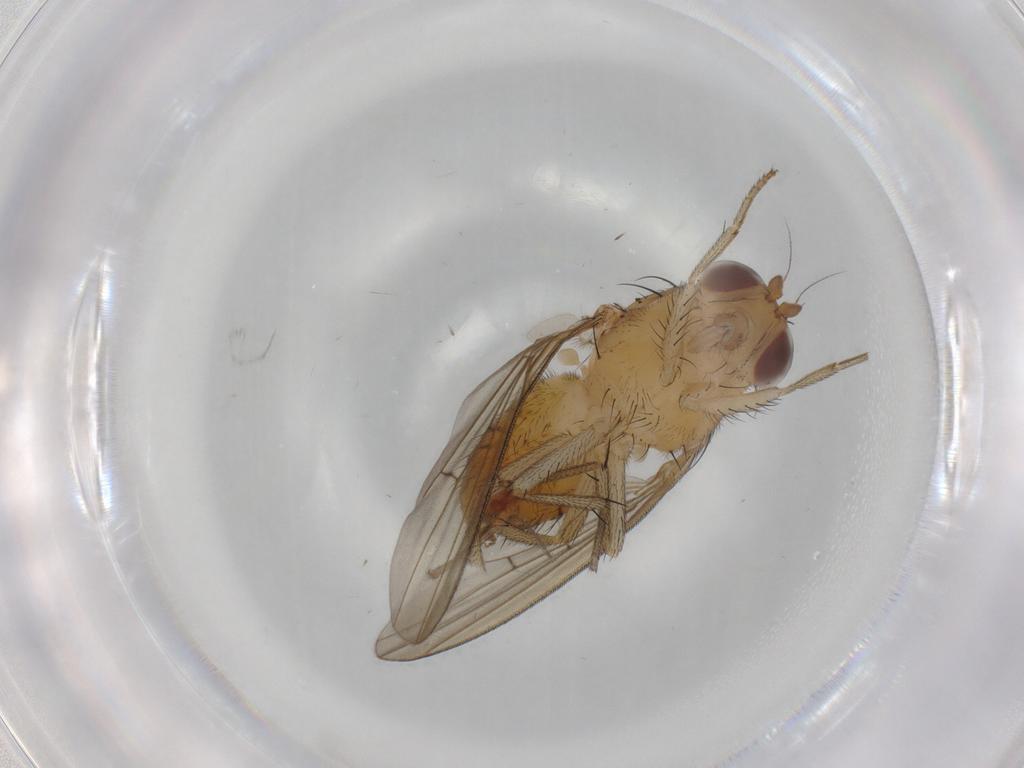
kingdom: Animalia
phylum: Arthropoda
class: Insecta
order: Diptera
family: Cecidomyiidae
